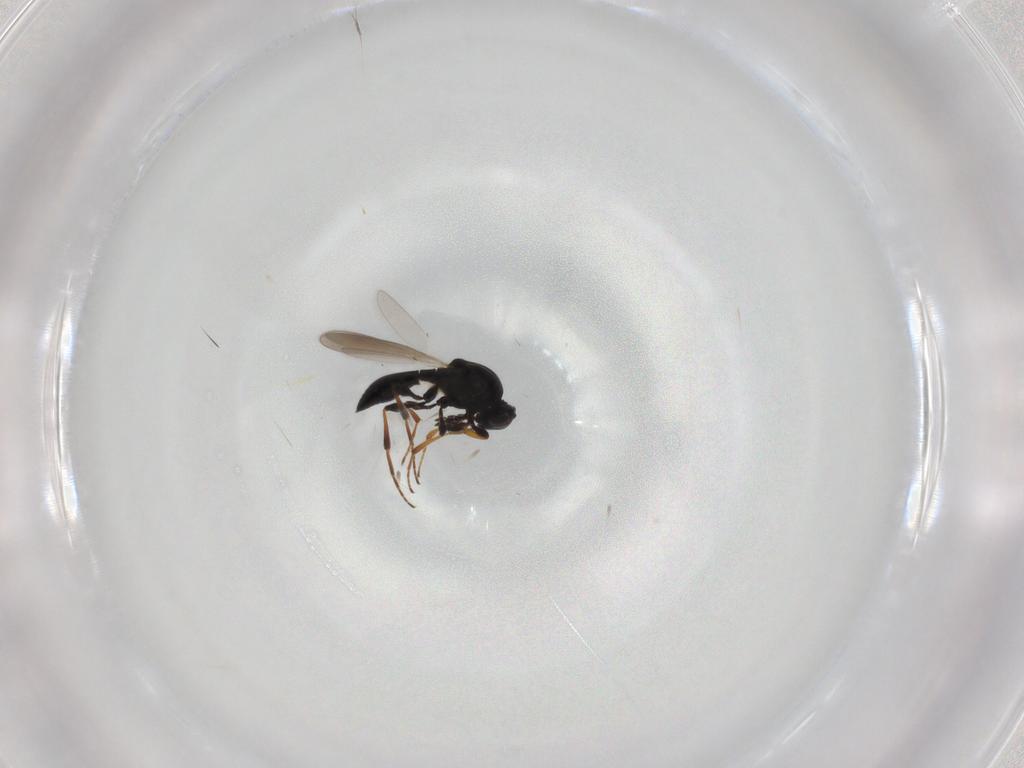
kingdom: Animalia
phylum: Arthropoda
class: Insecta
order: Hymenoptera
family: Platygastridae
